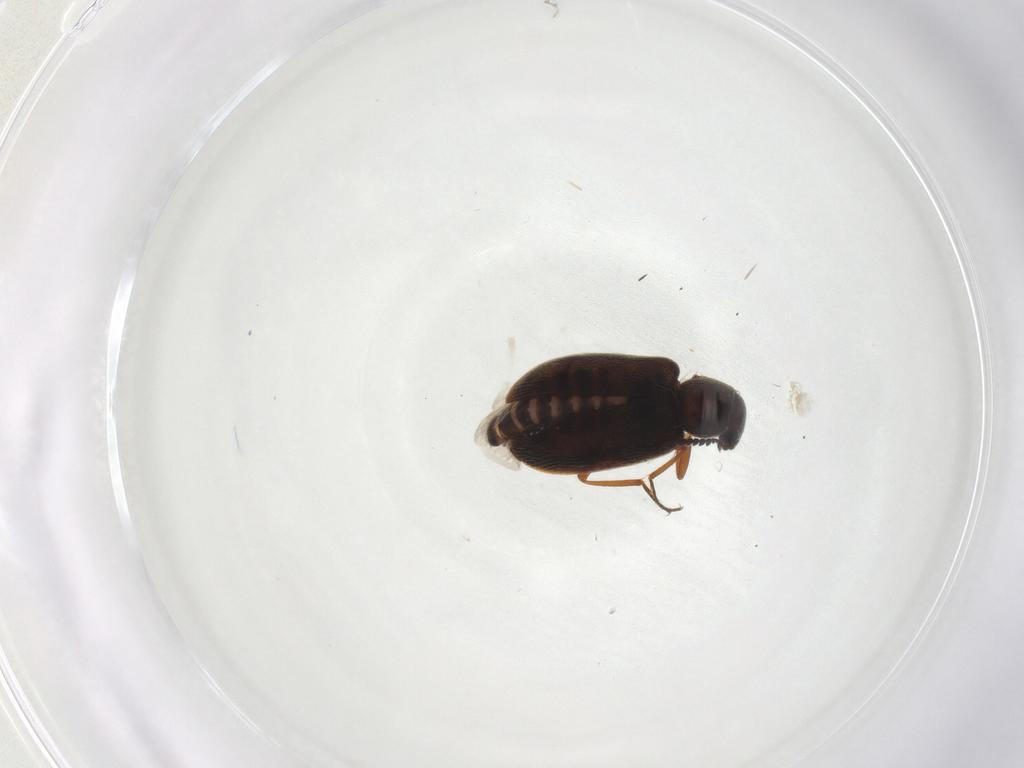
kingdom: Animalia
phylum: Arthropoda
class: Insecta
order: Coleoptera
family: Rhadalidae
